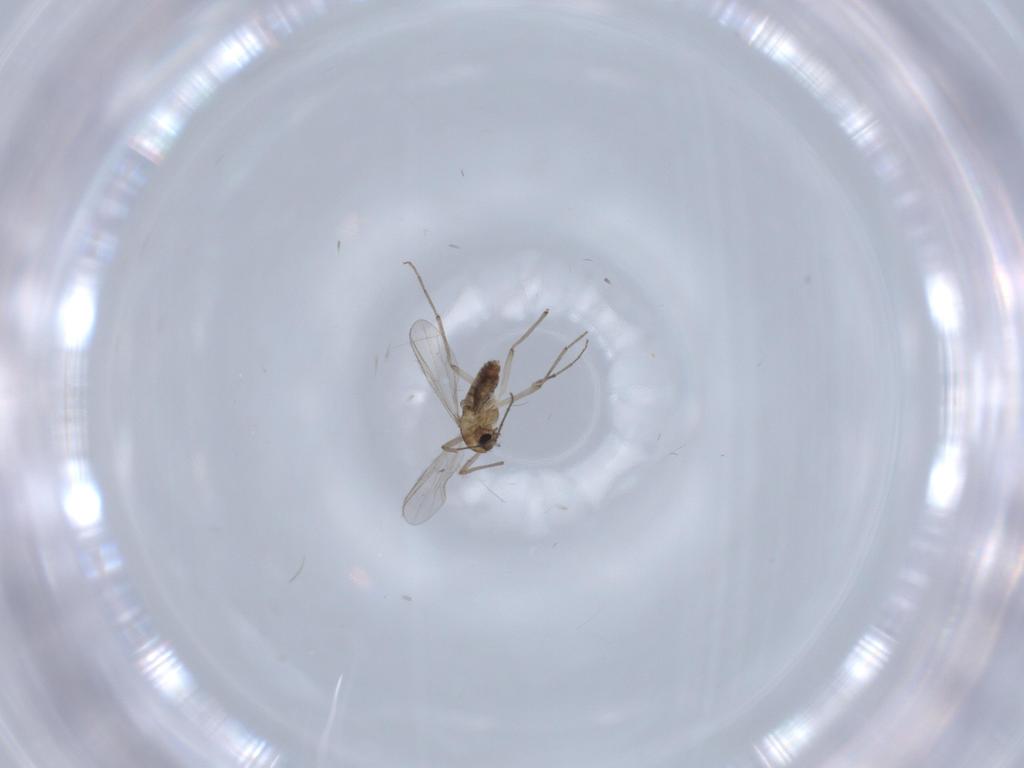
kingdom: Animalia
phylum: Arthropoda
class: Insecta
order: Diptera
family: Chironomidae
